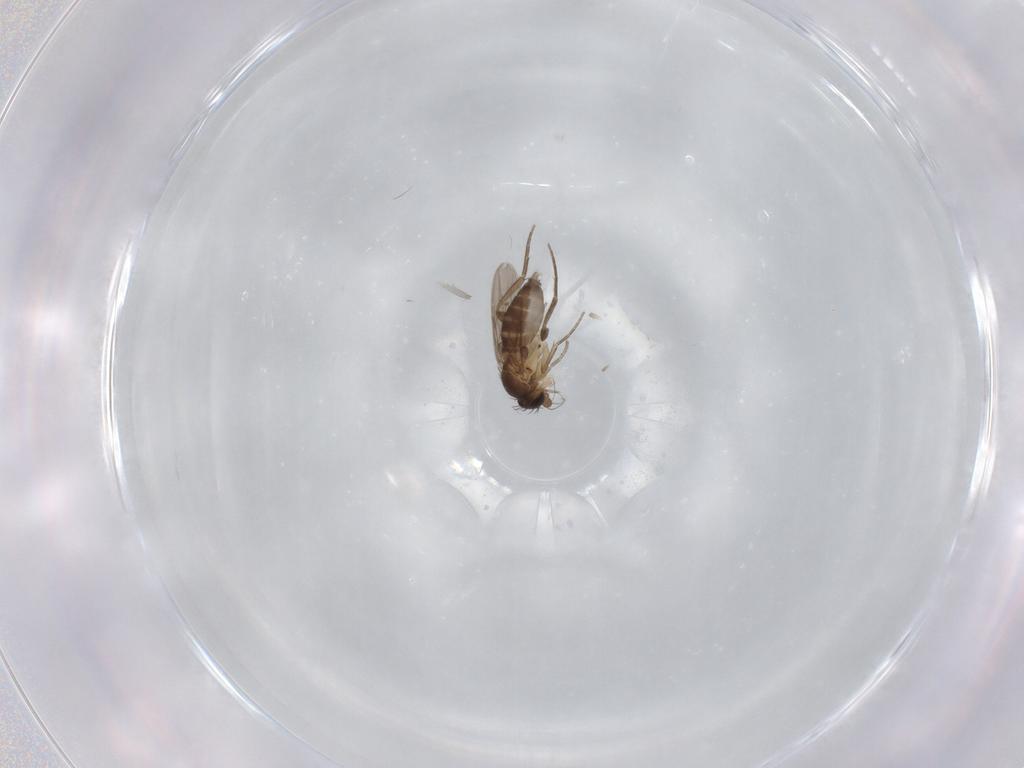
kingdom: Animalia
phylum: Arthropoda
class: Insecta
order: Diptera
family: Phoridae
